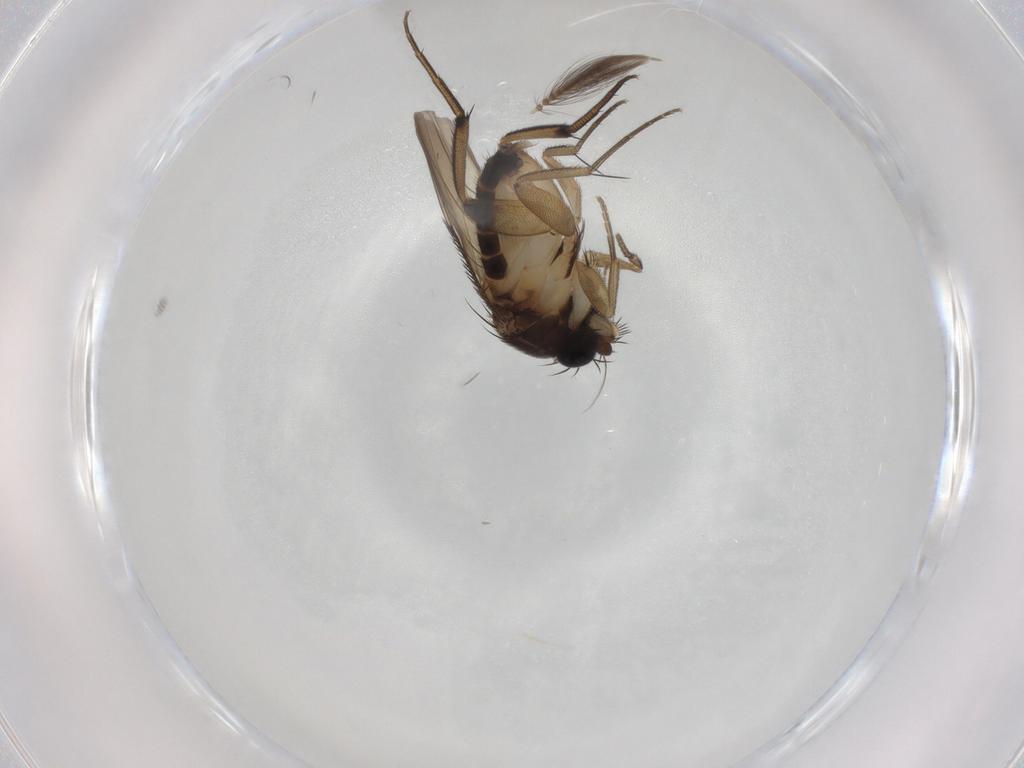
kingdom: Animalia
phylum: Arthropoda
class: Insecta
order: Diptera
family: Phoridae
